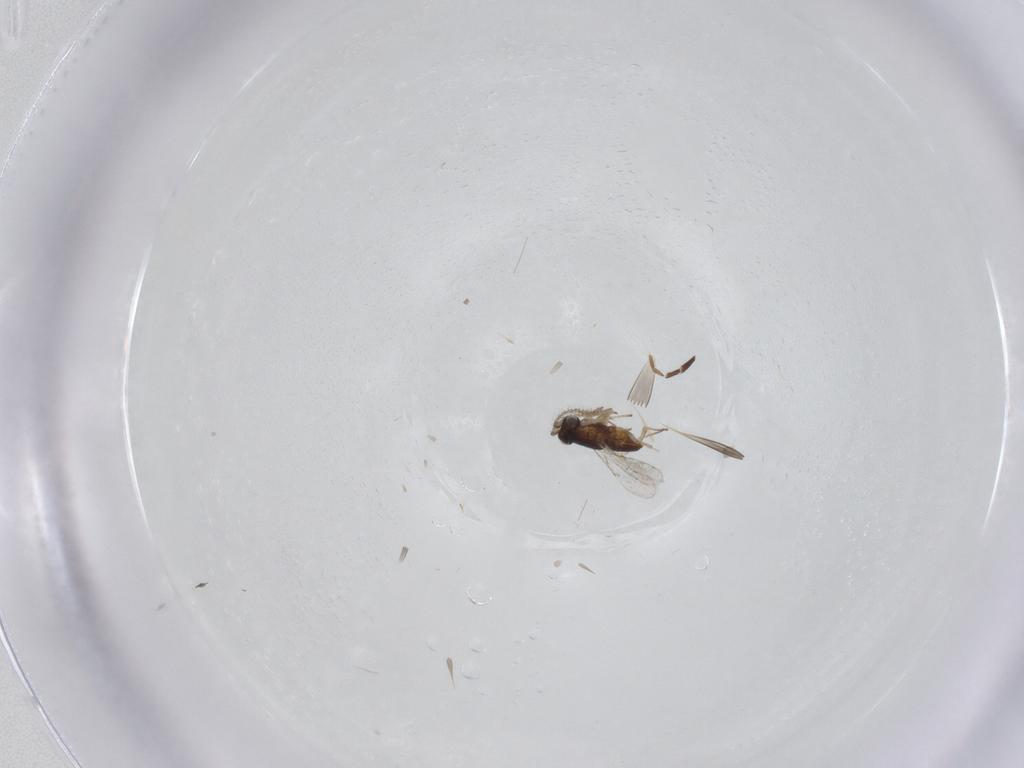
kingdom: Animalia
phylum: Arthropoda
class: Insecta
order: Hymenoptera
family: Braconidae
